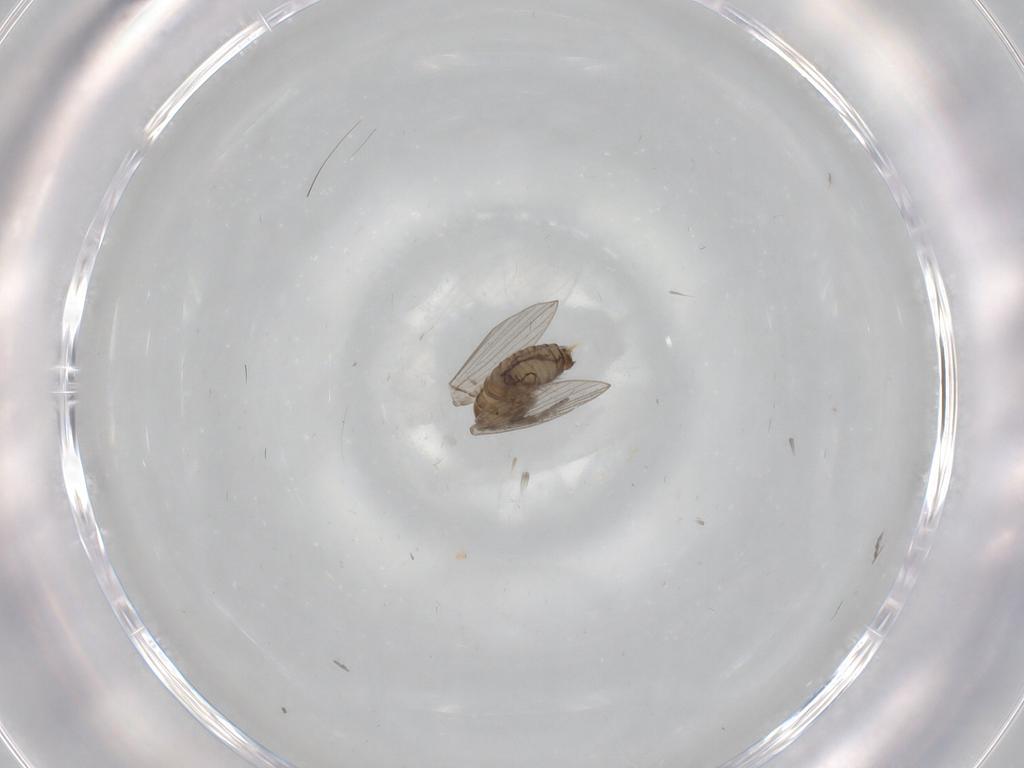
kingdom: Animalia
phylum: Arthropoda
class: Insecta
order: Diptera
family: Psychodidae
